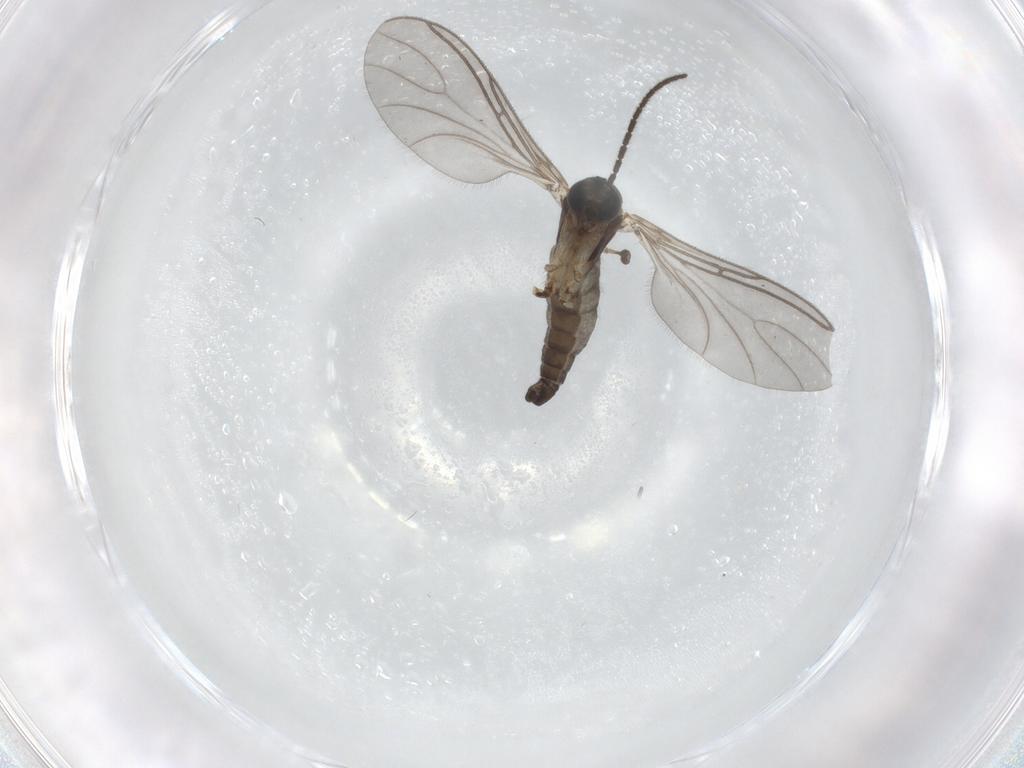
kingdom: Animalia
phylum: Arthropoda
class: Insecta
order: Diptera
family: Sciaridae
